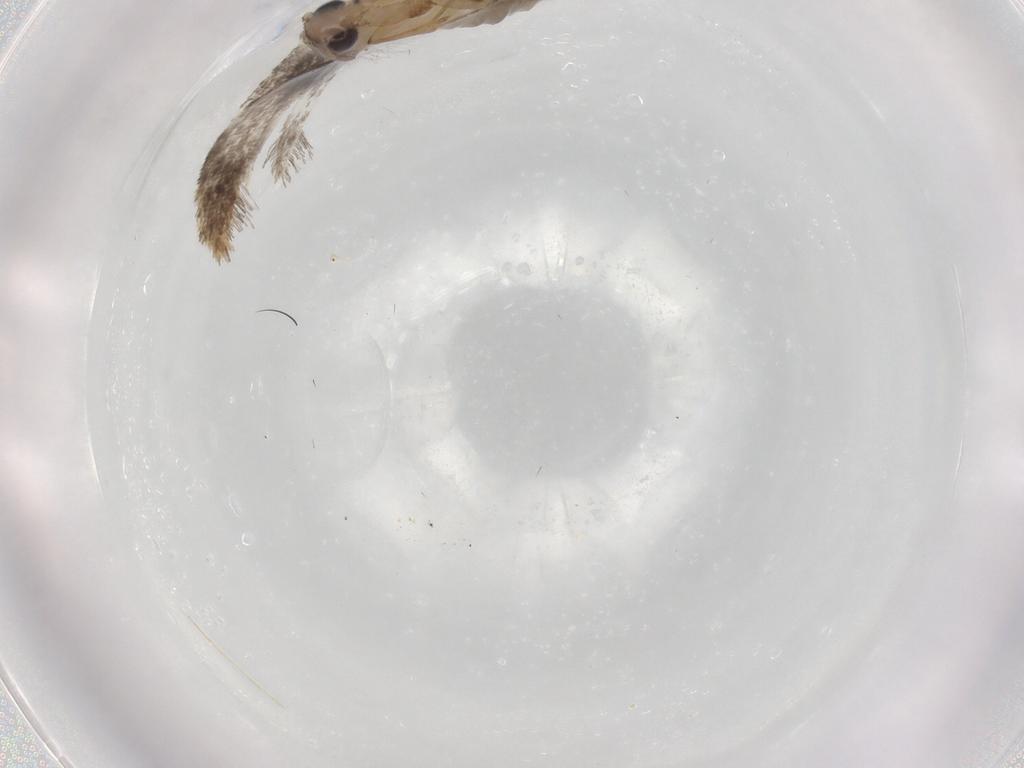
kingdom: Animalia
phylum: Arthropoda
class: Insecta
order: Lepidoptera
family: Tineidae
